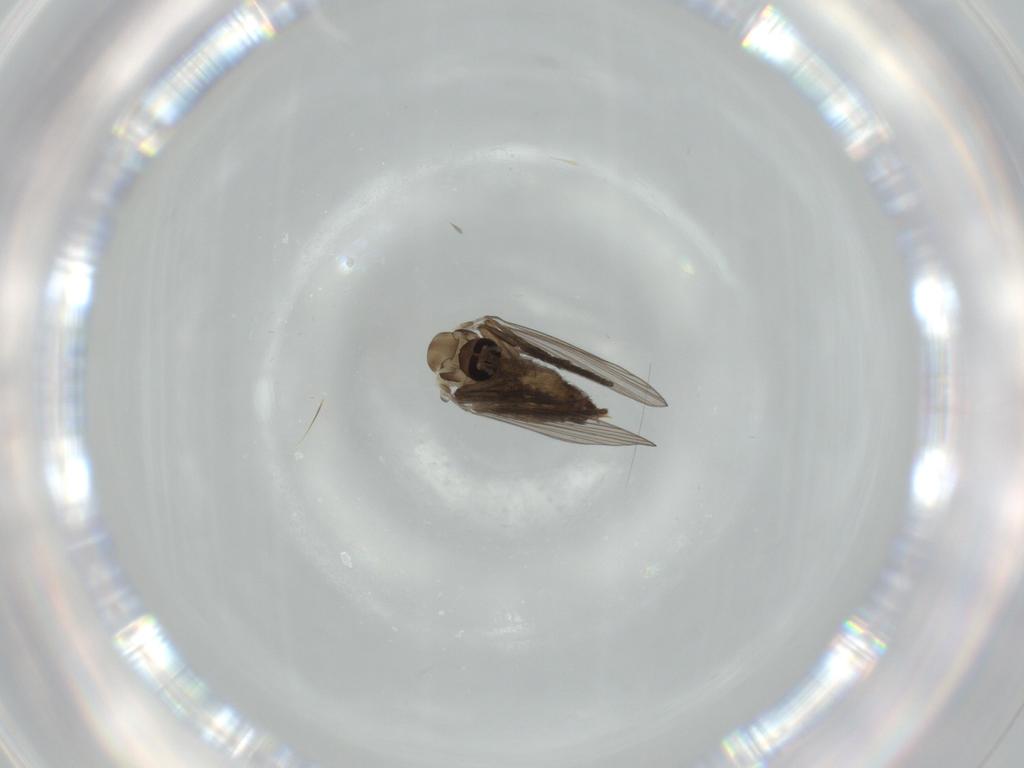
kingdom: Animalia
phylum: Arthropoda
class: Insecta
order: Diptera
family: Psychodidae
